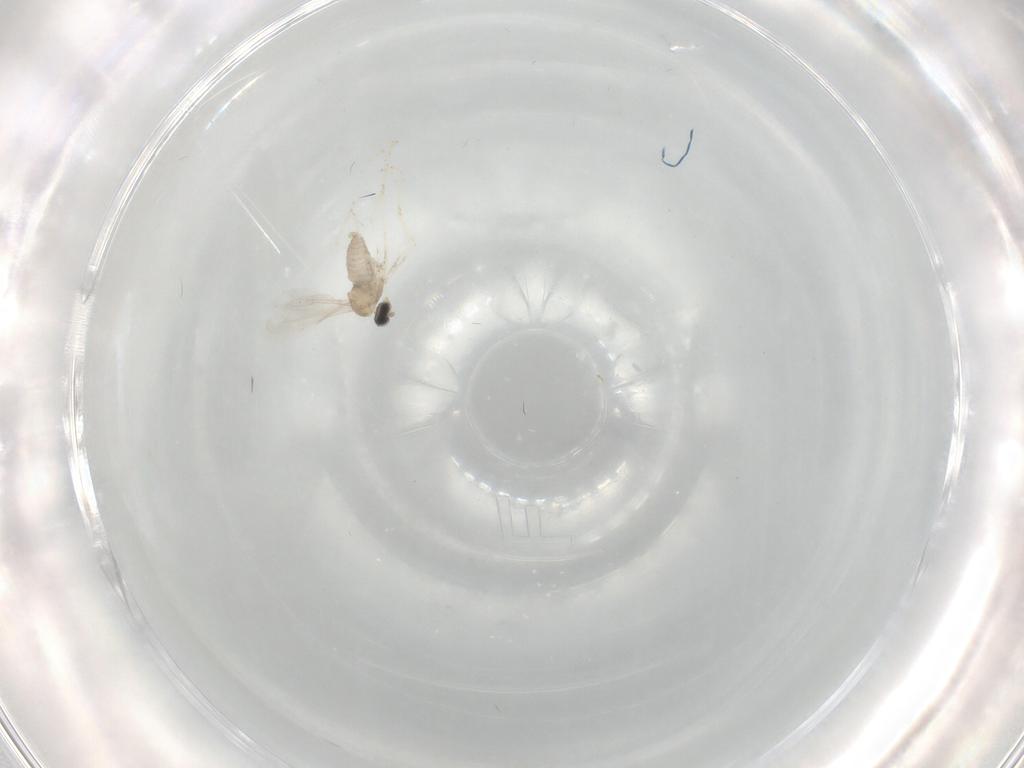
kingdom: Animalia
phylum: Arthropoda
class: Insecta
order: Diptera
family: Cecidomyiidae
